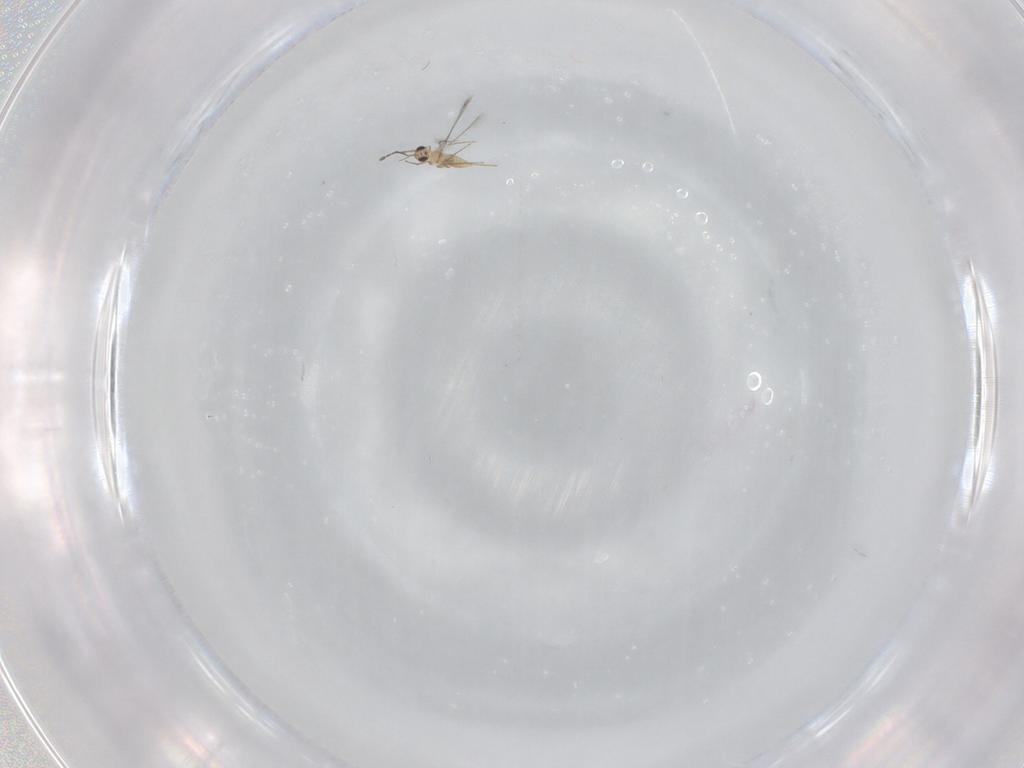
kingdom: Animalia
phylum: Arthropoda
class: Insecta
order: Hymenoptera
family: Mymaridae
